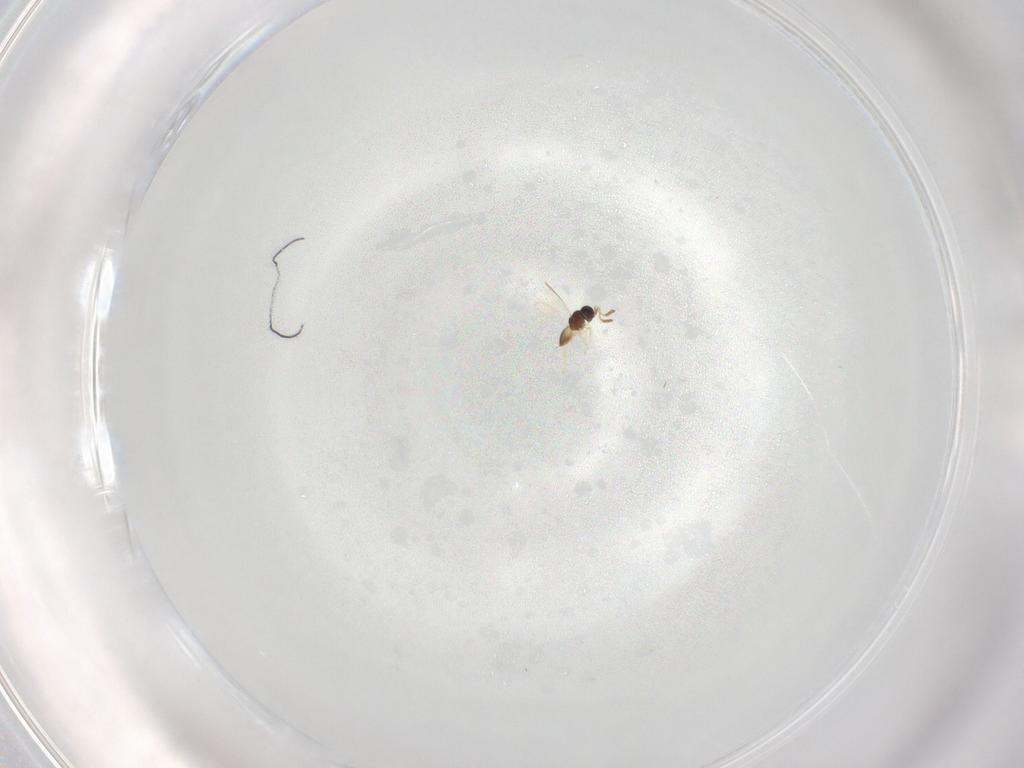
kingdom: Animalia
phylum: Arthropoda
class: Insecta
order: Hymenoptera
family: Scelionidae
